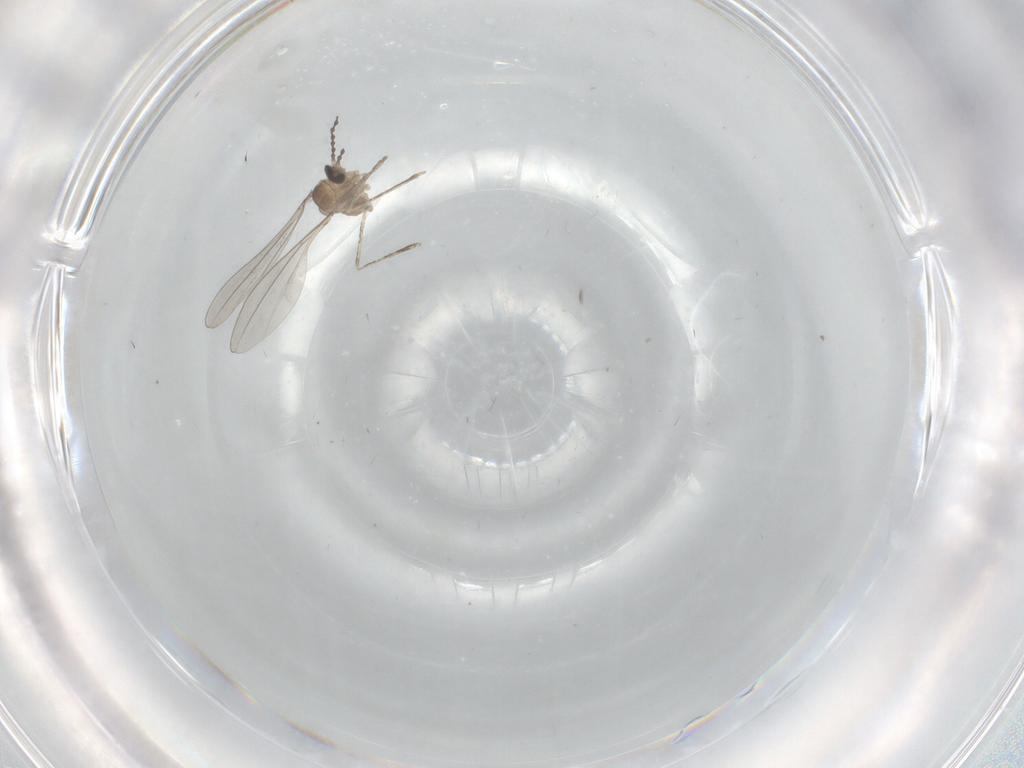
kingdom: Animalia
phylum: Arthropoda
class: Insecta
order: Diptera
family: Cecidomyiidae
